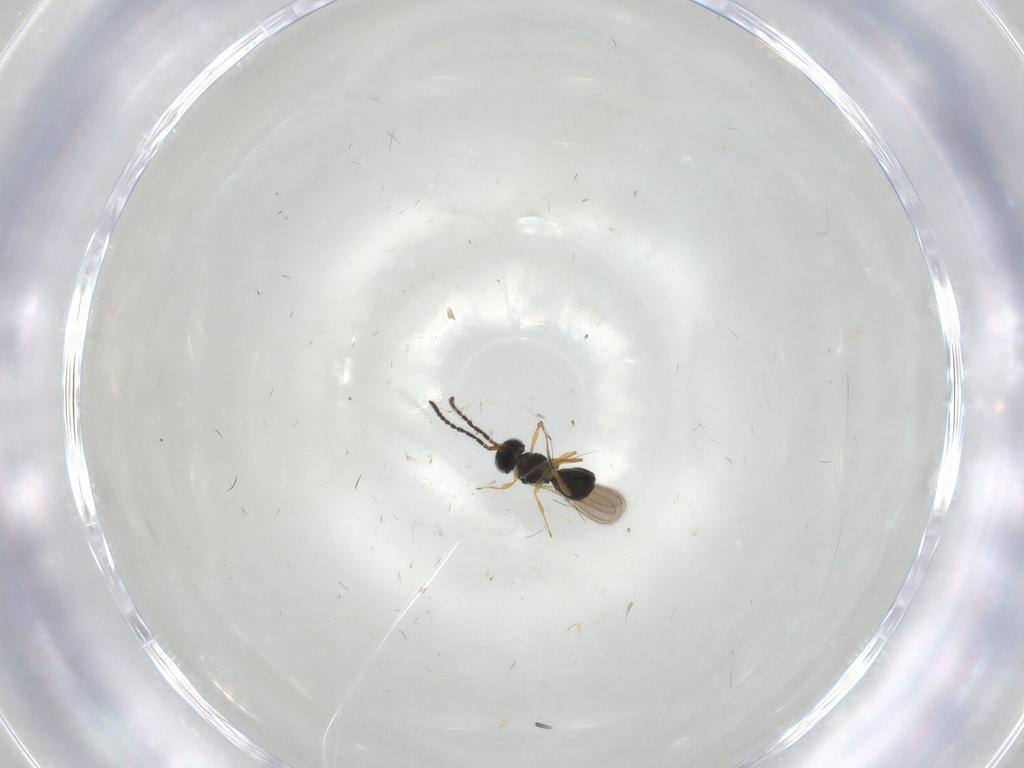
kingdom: Animalia
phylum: Arthropoda
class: Insecta
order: Hymenoptera
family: Scelionidae
